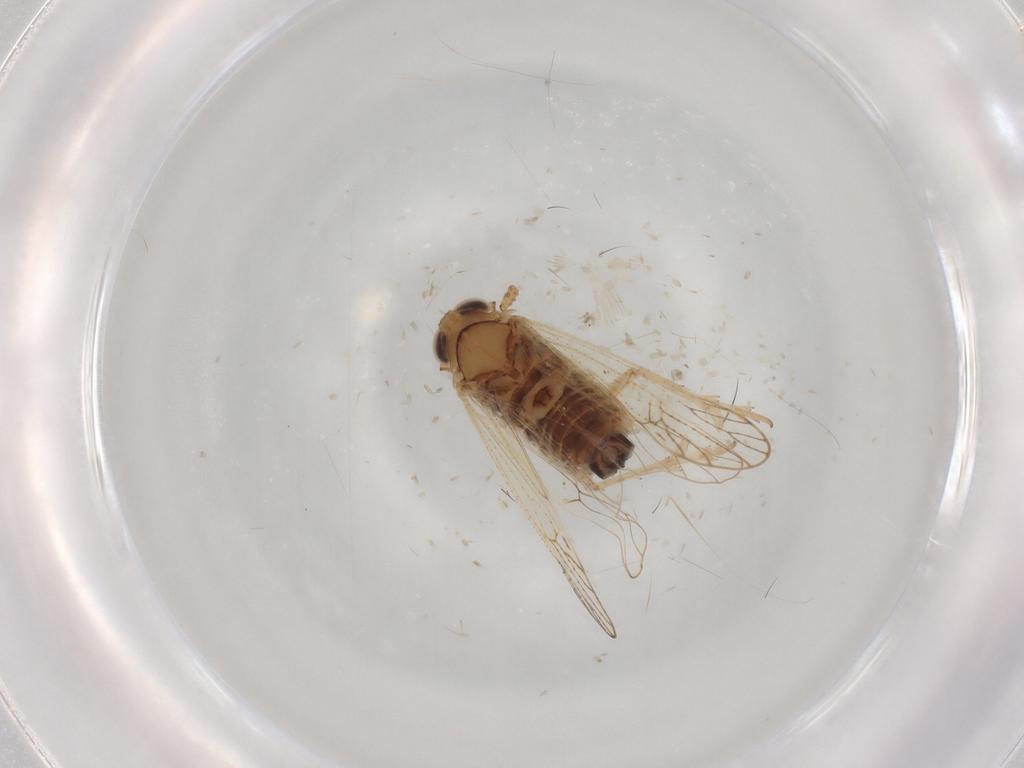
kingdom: Animalia
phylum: Arthropoda
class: Insecta
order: Hemiptera
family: Delphacidae
